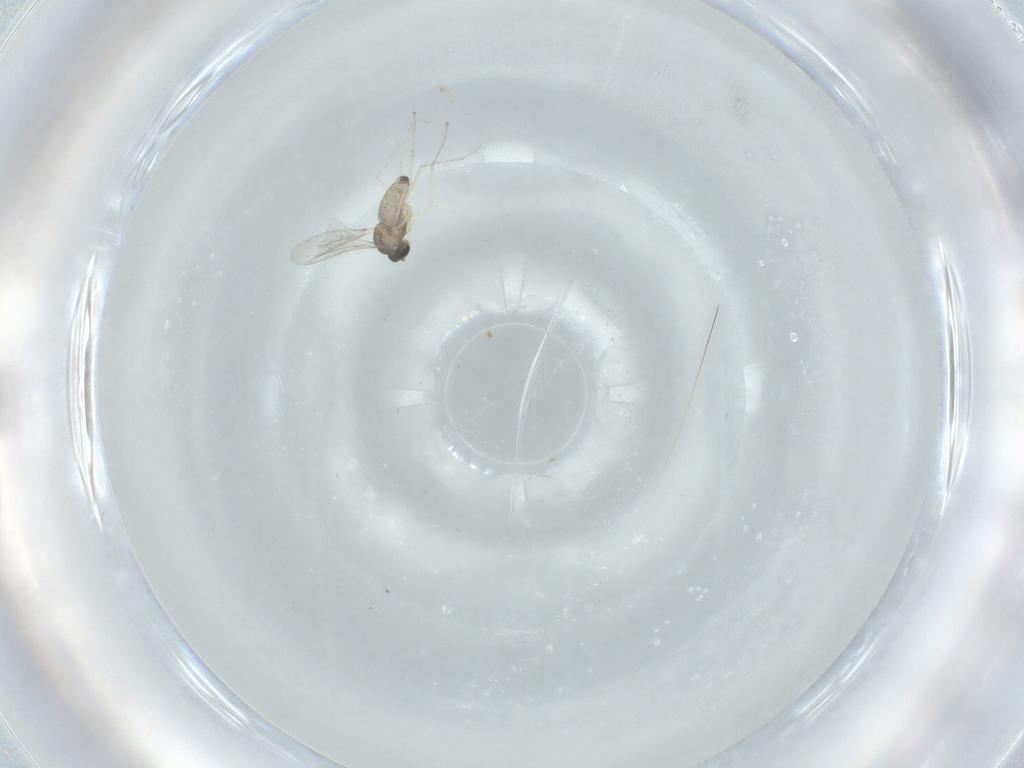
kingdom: Animalia
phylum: Arthropoda
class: Insecta
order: Diptera
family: Cecidomyiidae
